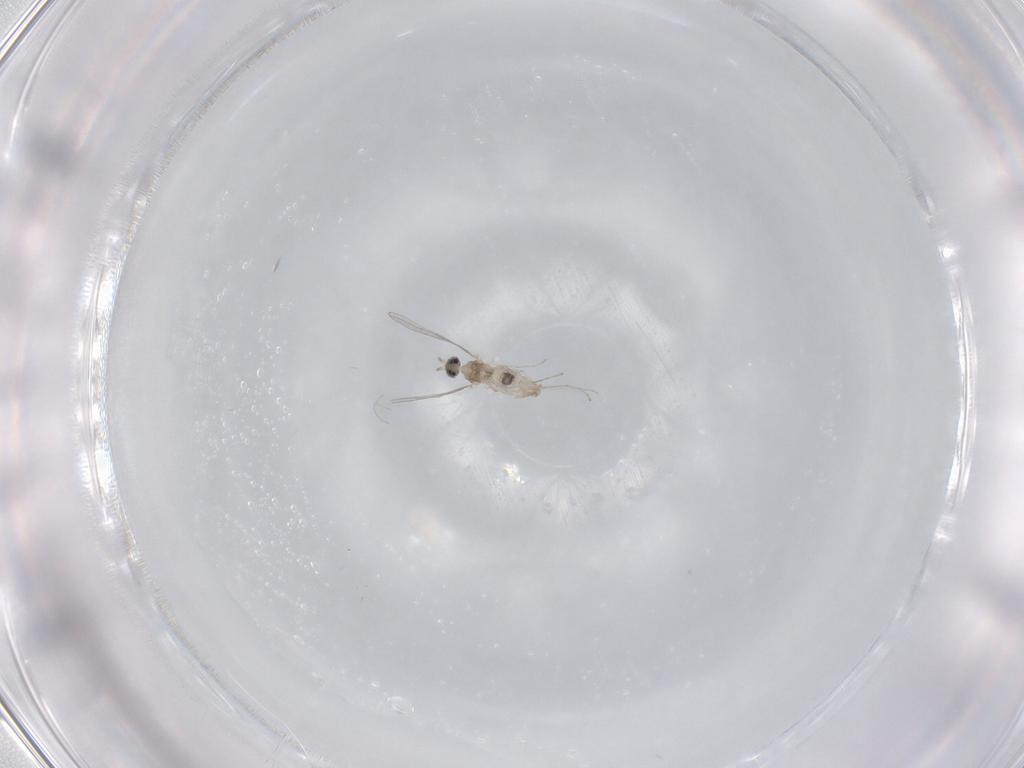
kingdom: Animalia
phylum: Arthropoda
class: Insecta
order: Diptera
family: Cecidomyiidae
